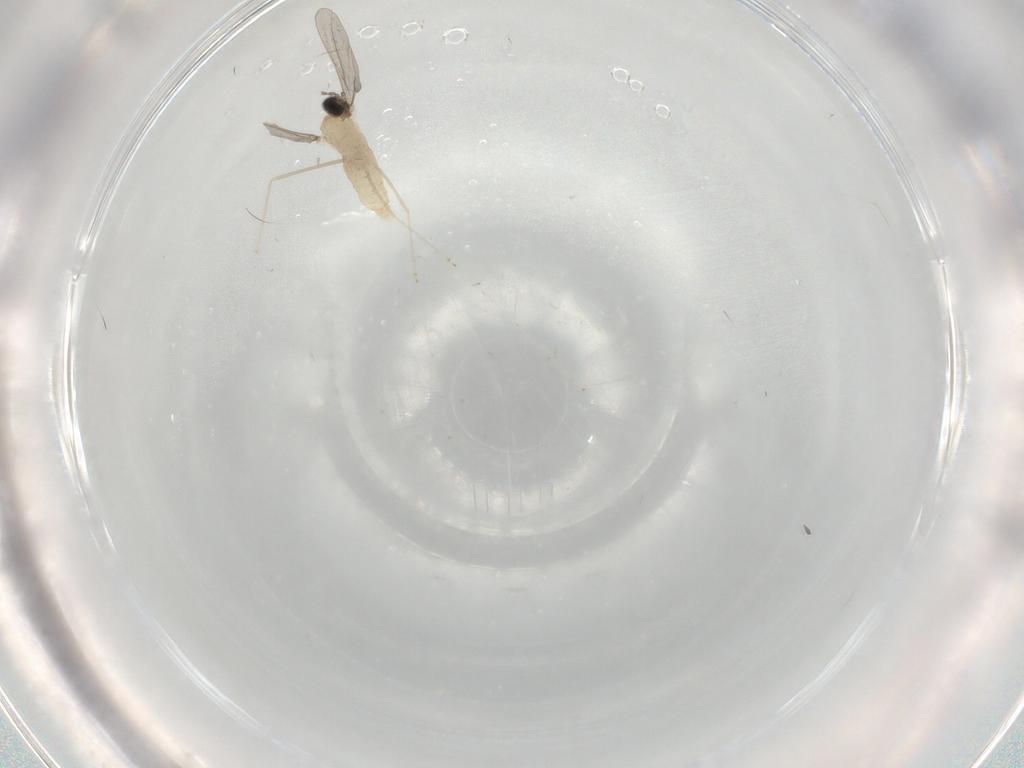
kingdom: Animalia
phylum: Arthropoda
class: Insecta
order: Diptera
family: Cecidomyiidae
